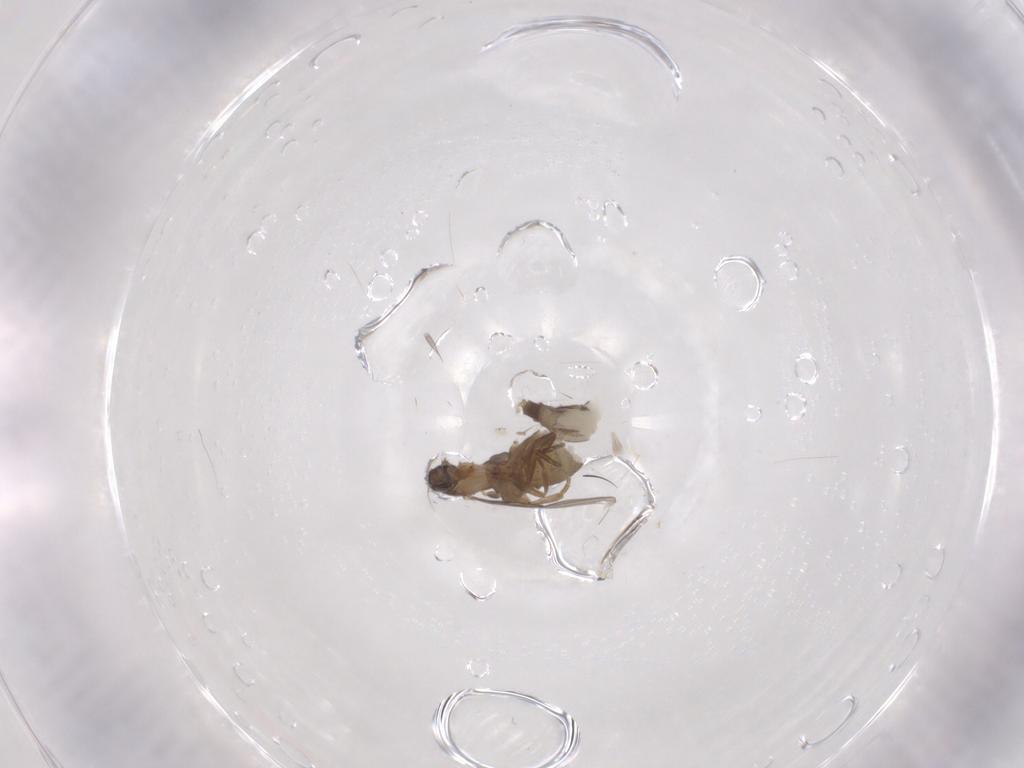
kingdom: Animalia
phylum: Arthropoda
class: Insecta
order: Diptera
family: Phoridae
